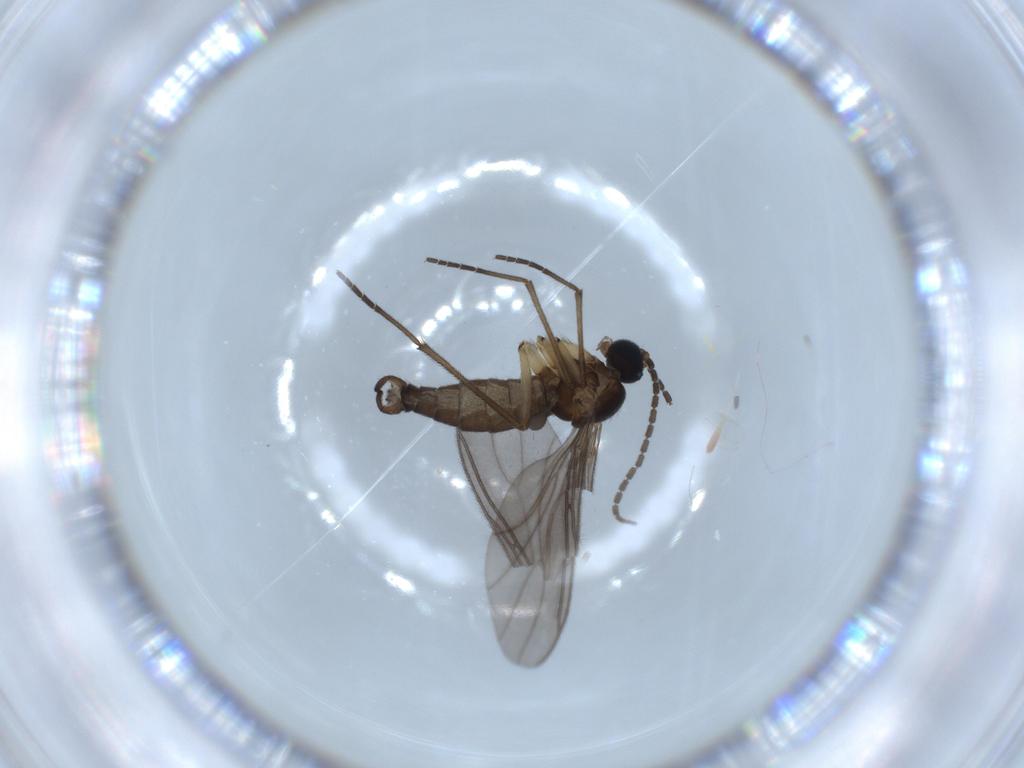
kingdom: Animalia
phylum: Arthropoda
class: Insecta
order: Diptera
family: Sciaridae
